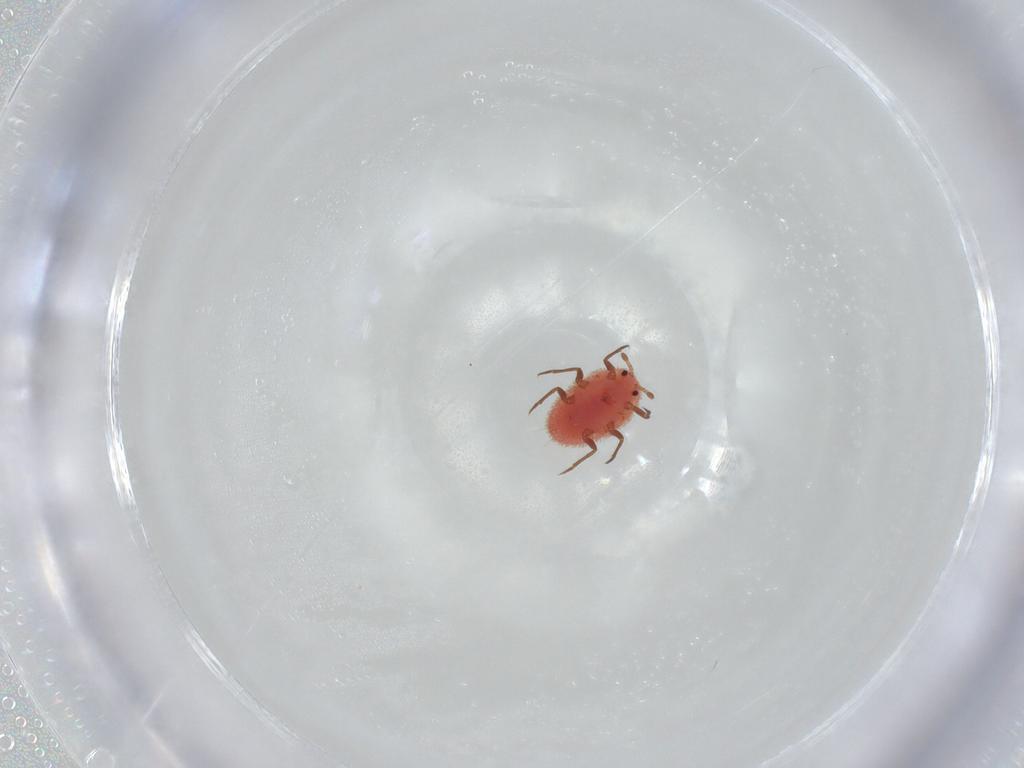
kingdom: Animalia
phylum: Arthropoda
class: Insecta
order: Diptera
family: Chloropidae
